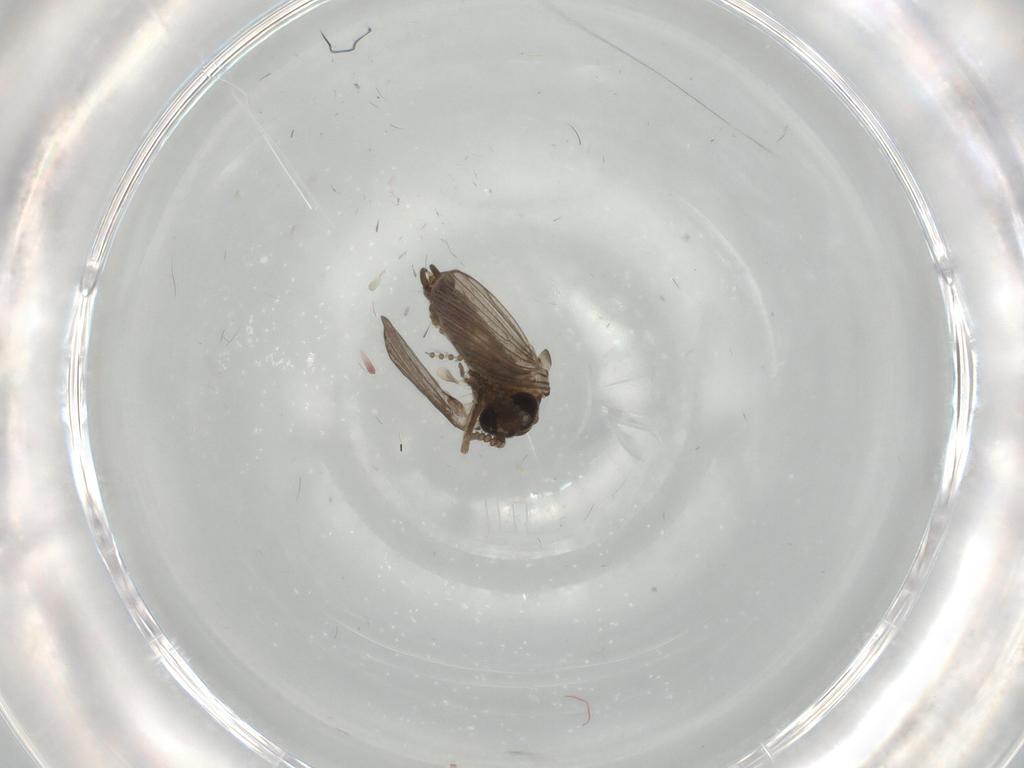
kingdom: Animalia
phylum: Arthropoda
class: Insecta
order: Diptera
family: Psychodidae
